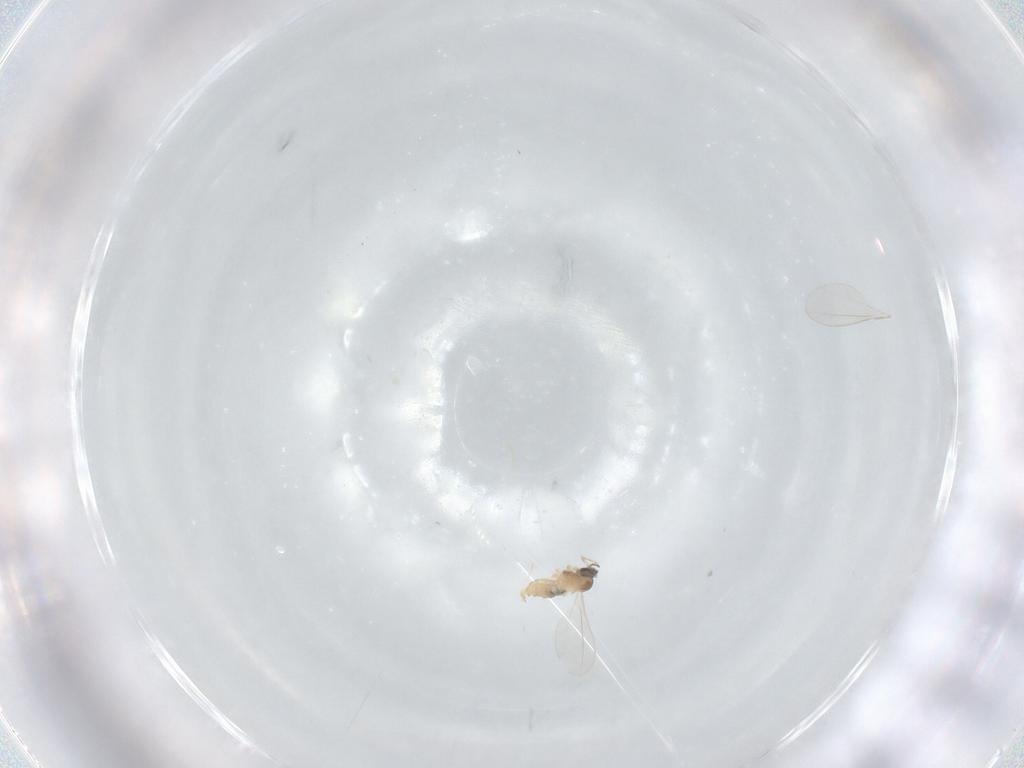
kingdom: Animalia
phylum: Arthropoda
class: Insecta
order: Diptera
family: Cecidomyiidae
